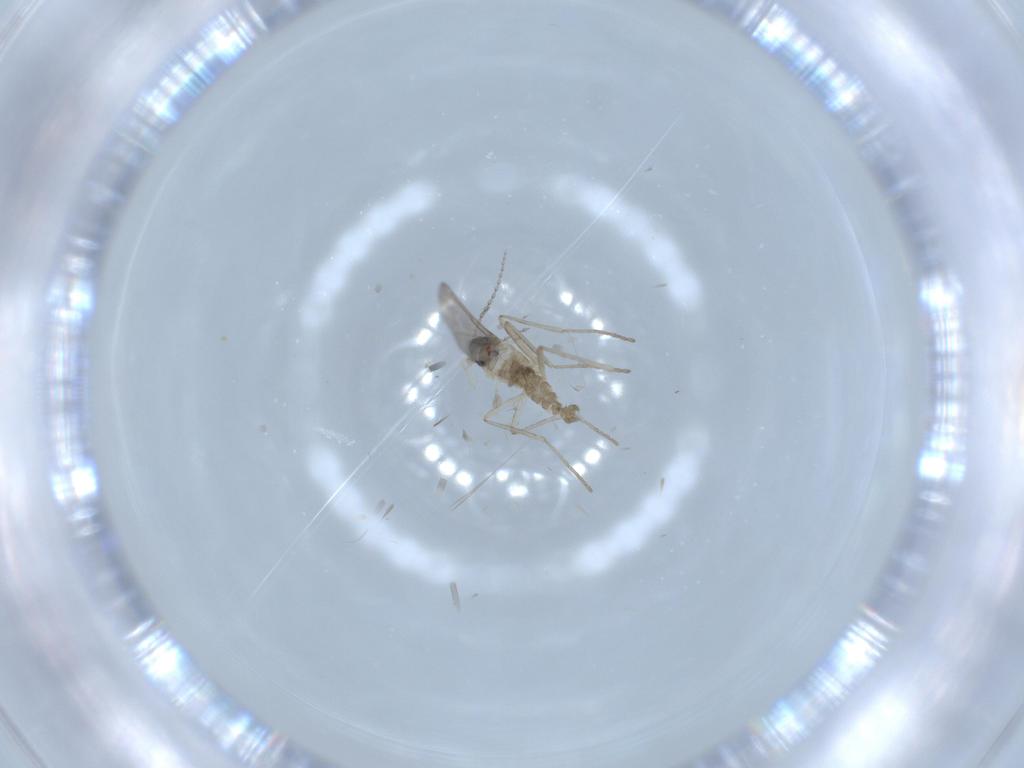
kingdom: Animalia
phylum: Arthropoda
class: Insecta
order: Diptera
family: Cecidomyiidae
